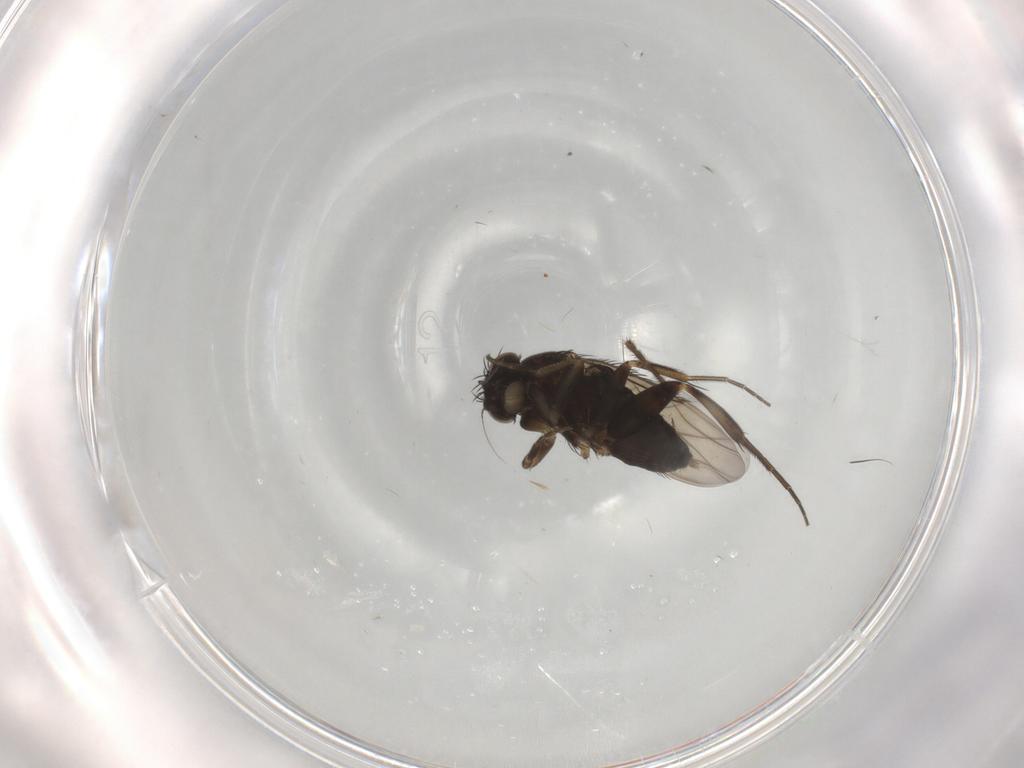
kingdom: Animalia
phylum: Arthropoda
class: Insecta
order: Diptera
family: Phoridae
